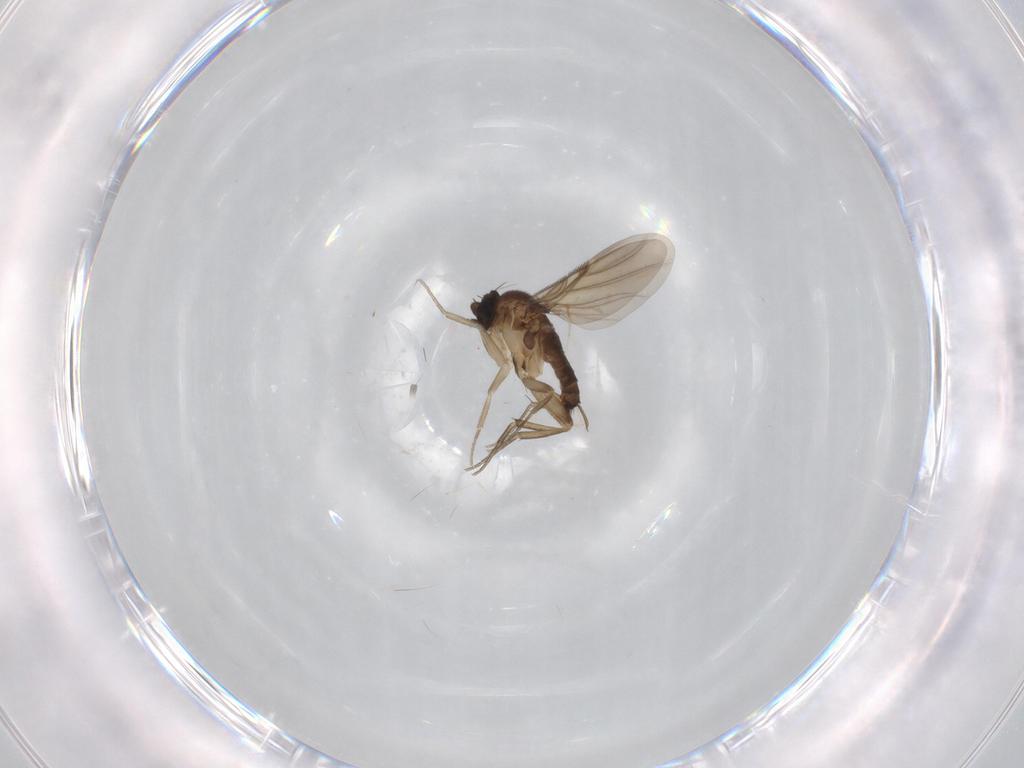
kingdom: Animalia
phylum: Arthropoda
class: Insecta
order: Diptera
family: Phoridae
